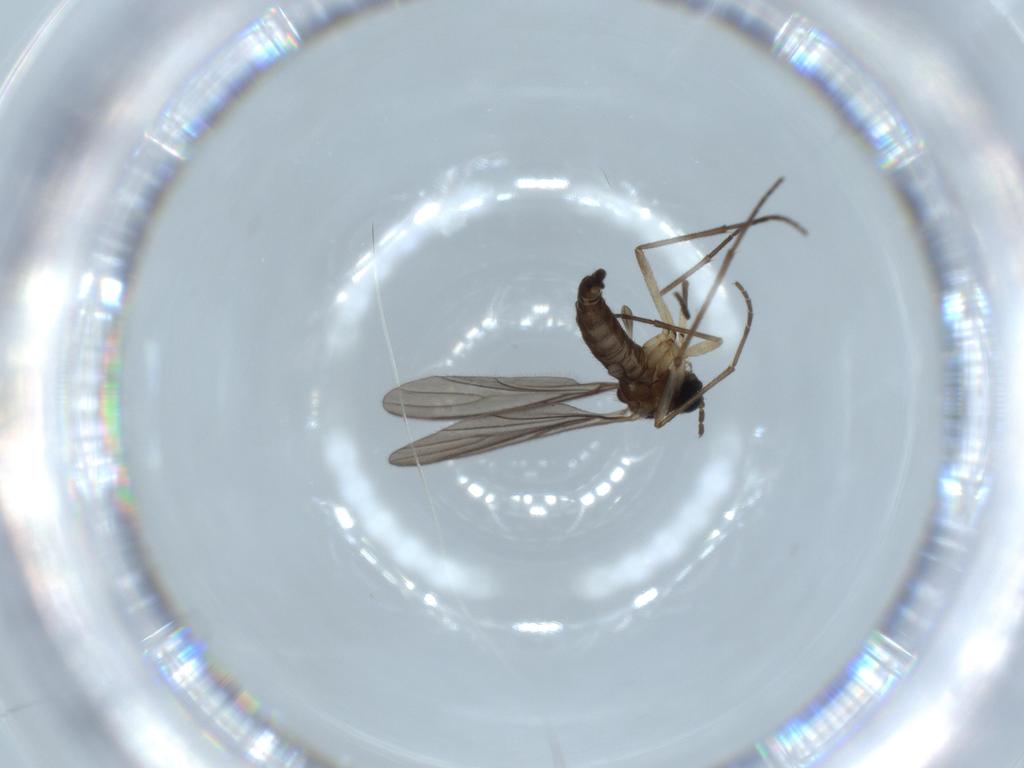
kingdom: Animalia
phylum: Arthropoda
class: Insecta
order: Diptera
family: Sciaridae
